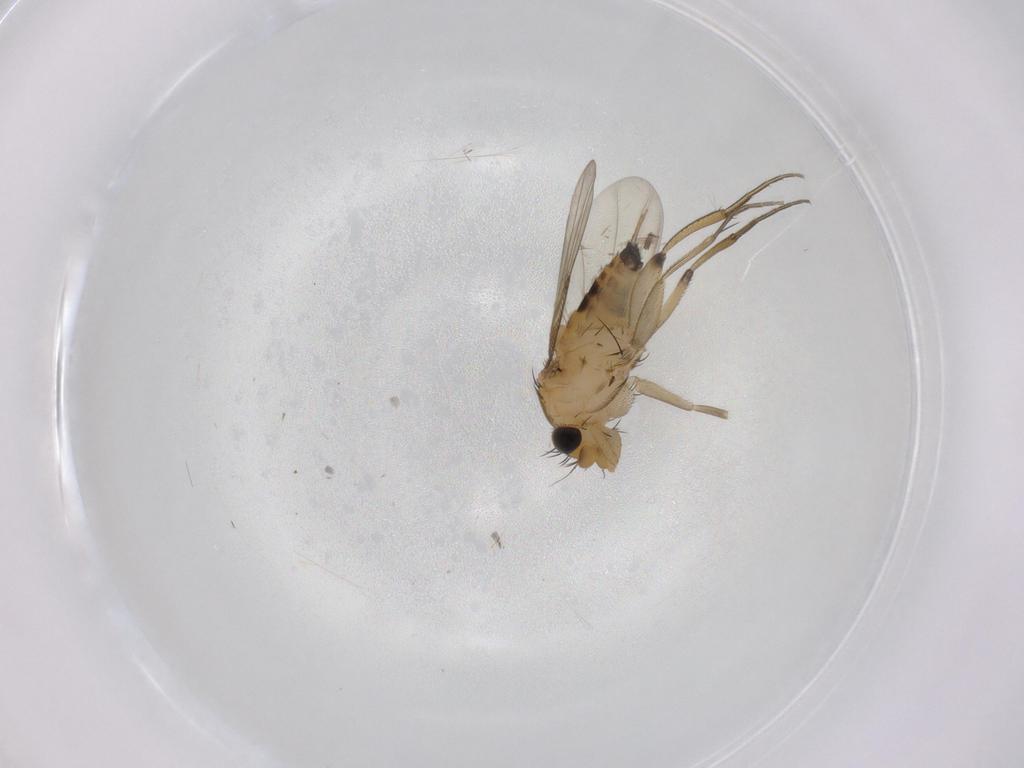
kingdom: Animalia
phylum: Arthropoda
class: Insecta
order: Diptera
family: Phoridae
